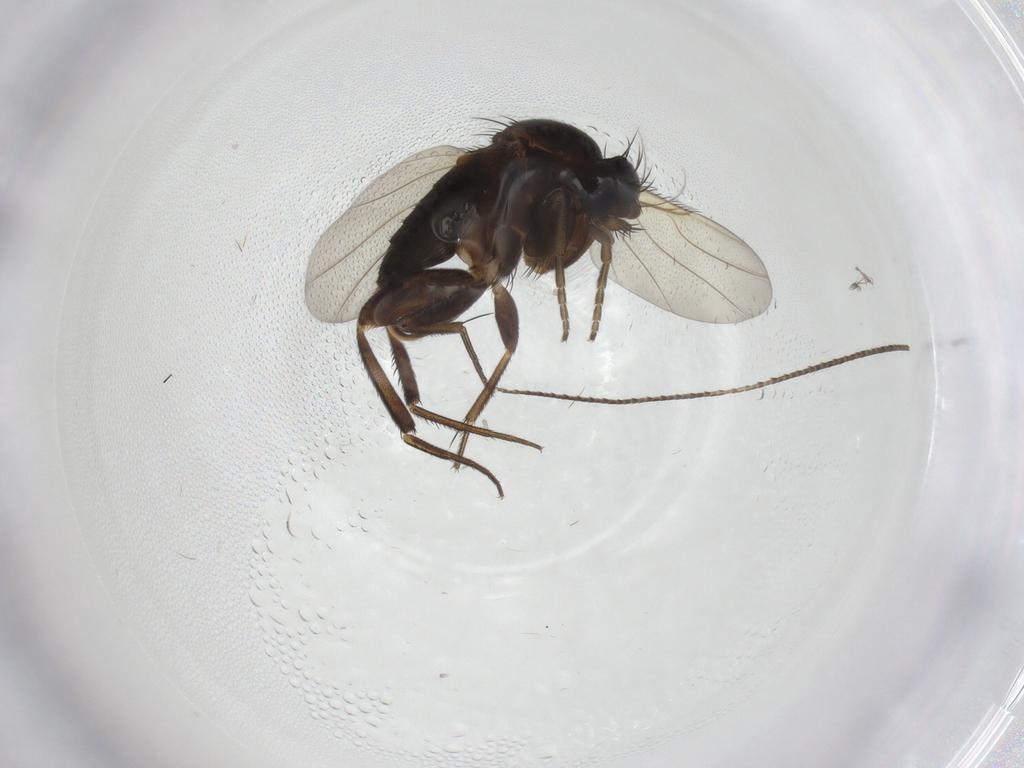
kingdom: Animalia
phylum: Arthropoda
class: Insecta
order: Diptera
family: Phoridae
